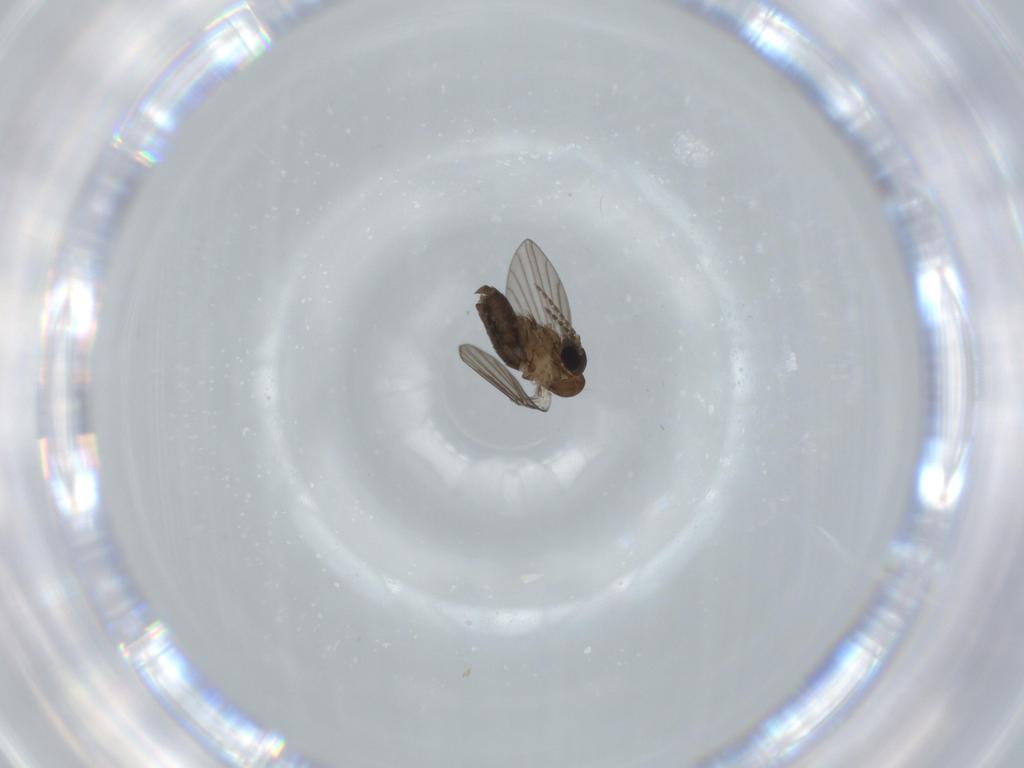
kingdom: Animalia
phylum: Arthropoda
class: Insecta
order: Diptera
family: Psychodidae
